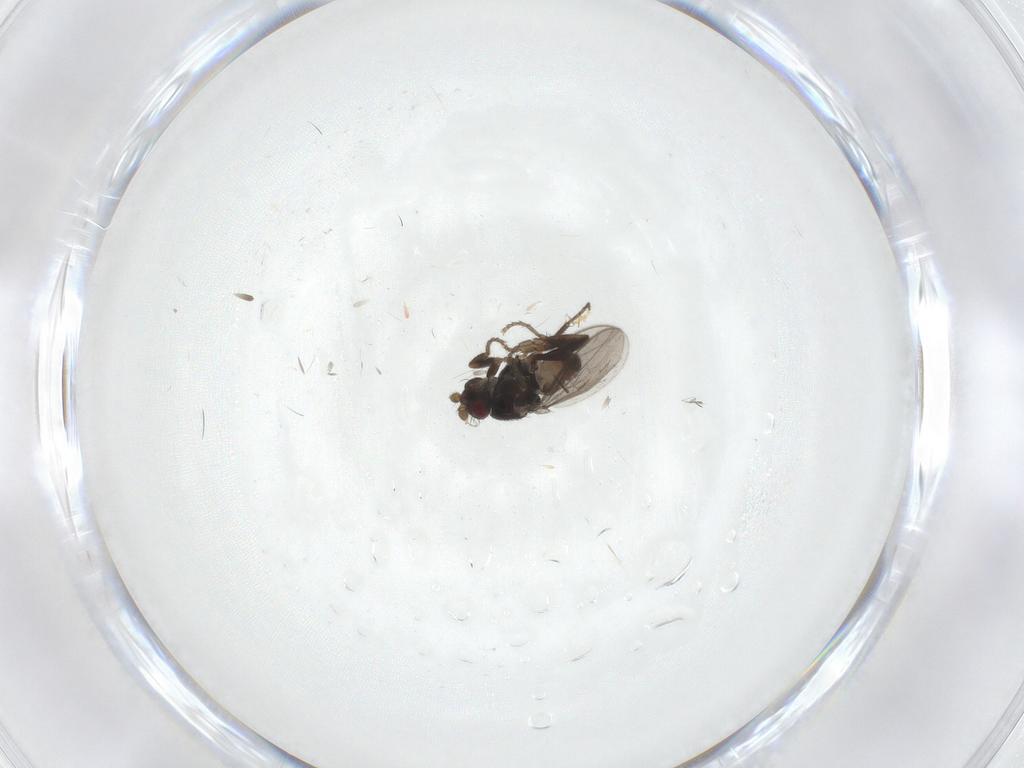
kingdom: Animalia
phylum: Arthropoda
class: Insecta
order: Diptera
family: Sphaeroceridae
